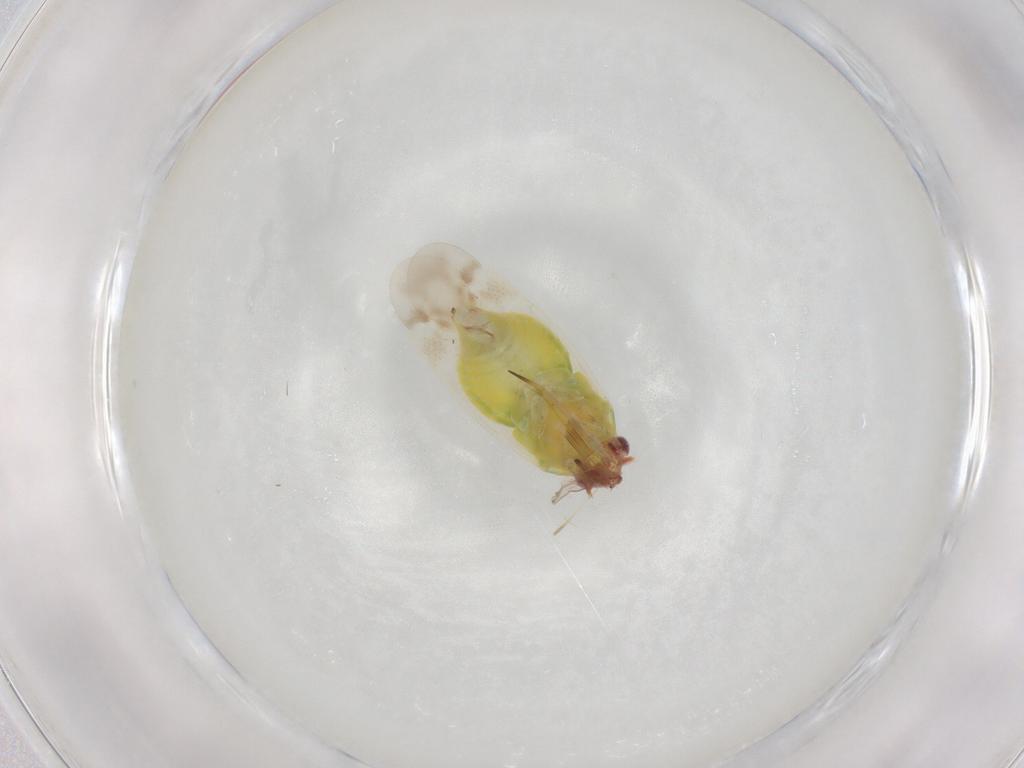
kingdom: Animalia
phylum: Arthropoda
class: Insecta
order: Hemiptera
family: Miridae
